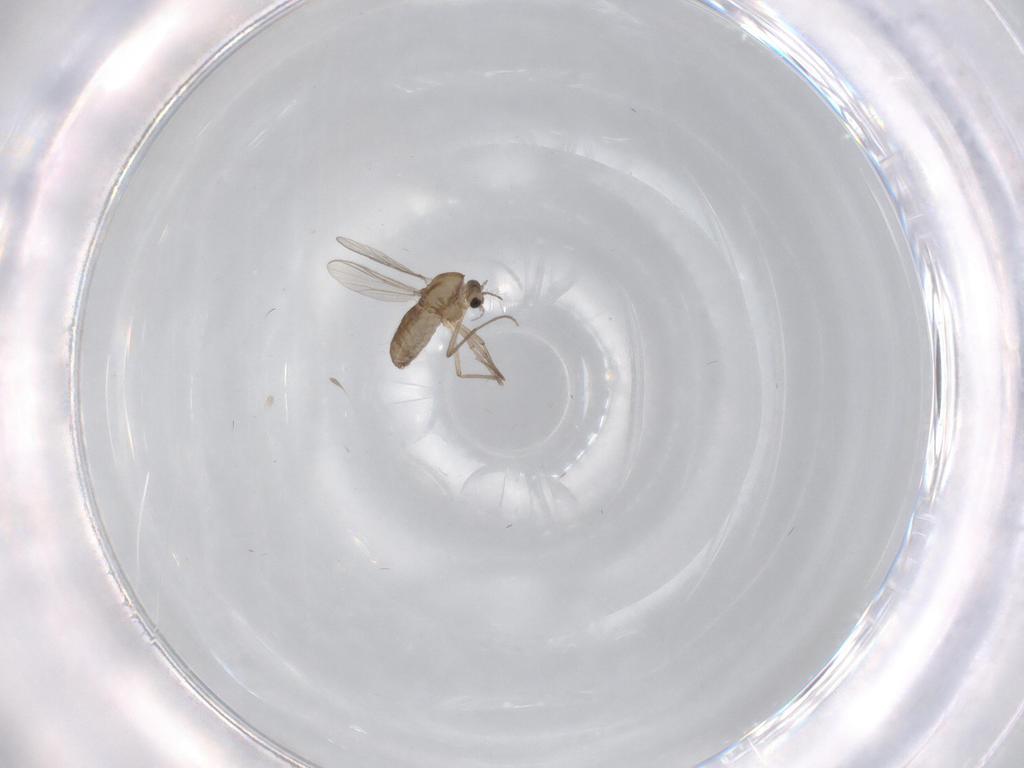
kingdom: Animalia
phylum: Arthropoda
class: Insecta
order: Diptera
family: Chironomidae
